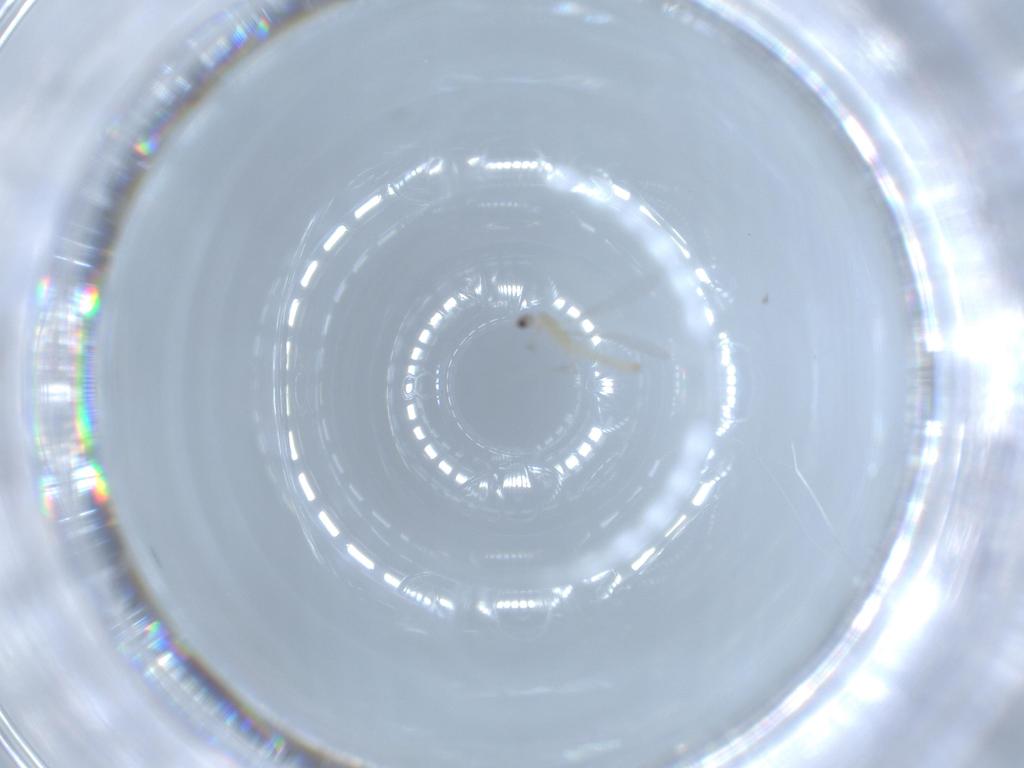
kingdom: Animalia
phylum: Arthropoda
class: Insecta
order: Diptera
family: Cecidomyiidae
